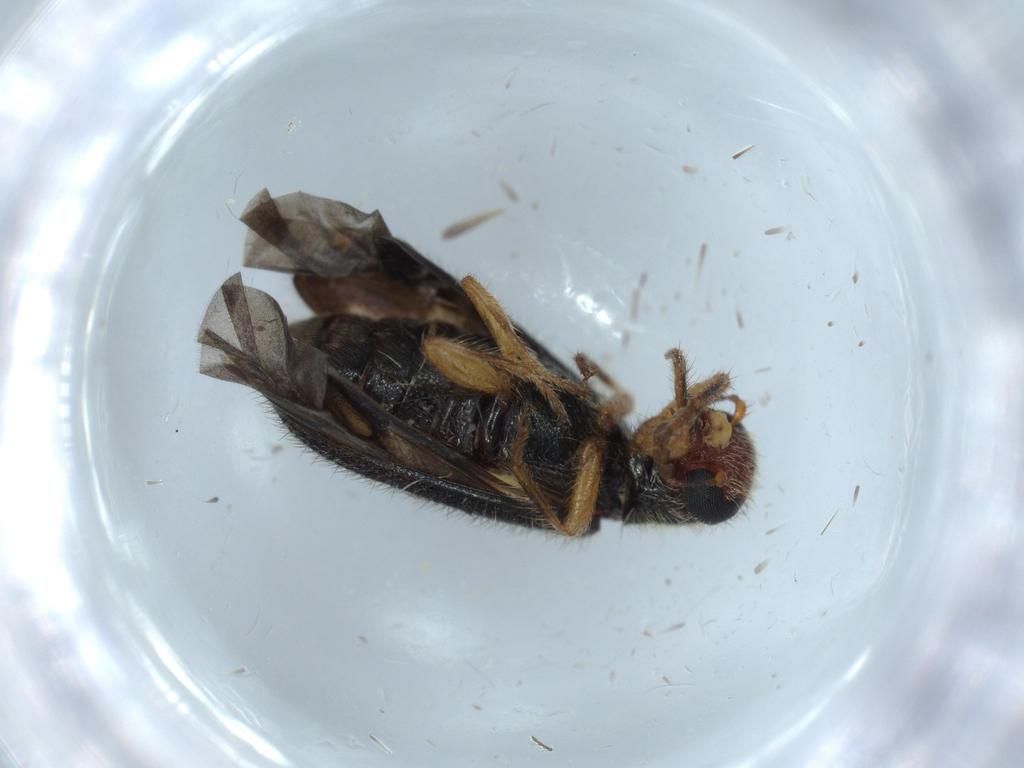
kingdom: Animalia
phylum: Arthropoda
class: Insecta
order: Coleoptera
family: Cleridae
